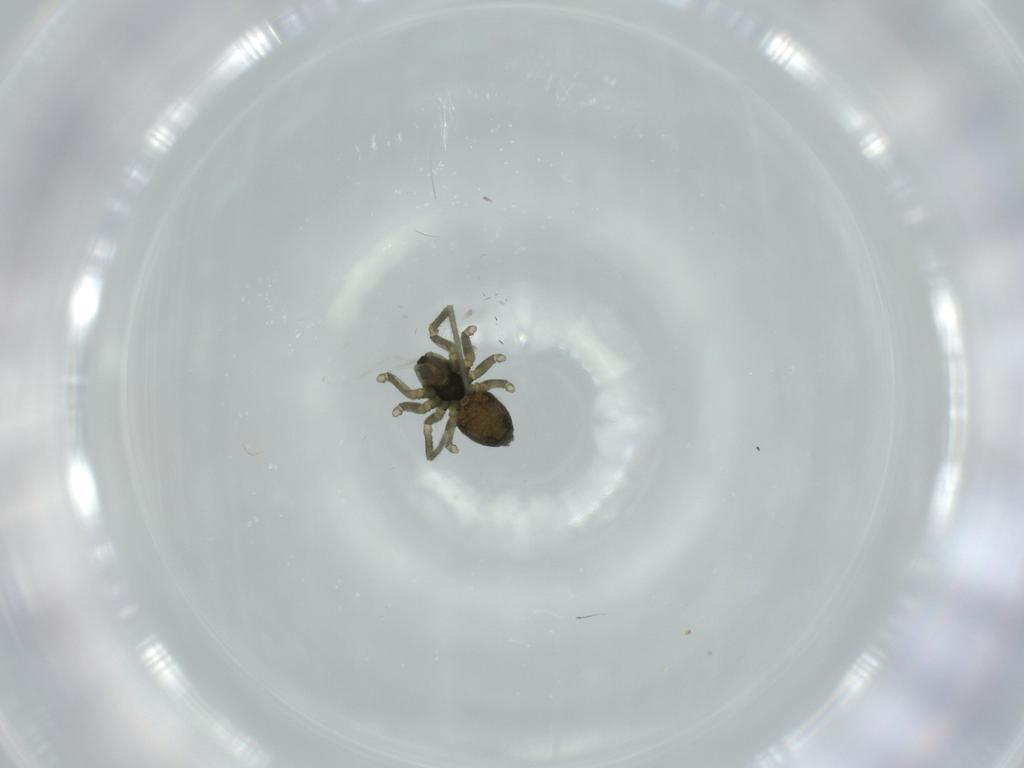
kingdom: Animalia
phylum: Arthropoda
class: Arachnida
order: Araneae
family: Linyphiidae
